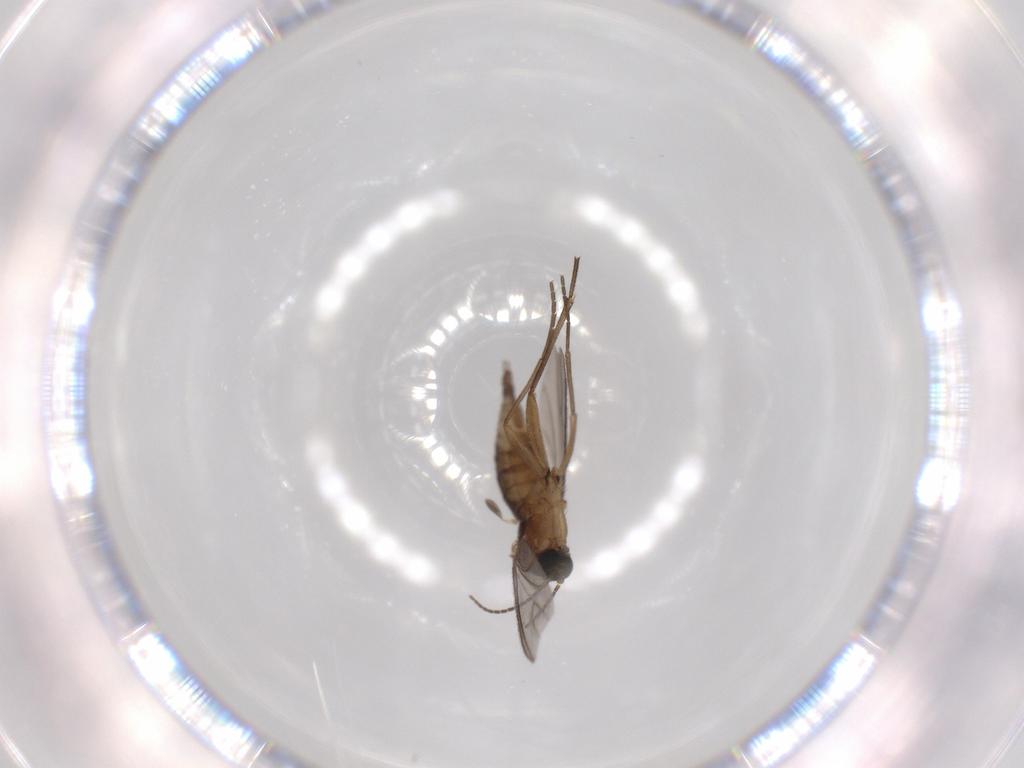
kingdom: Animalia
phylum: Arthropoda
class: Insecta
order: Diptera
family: Sciaridae
